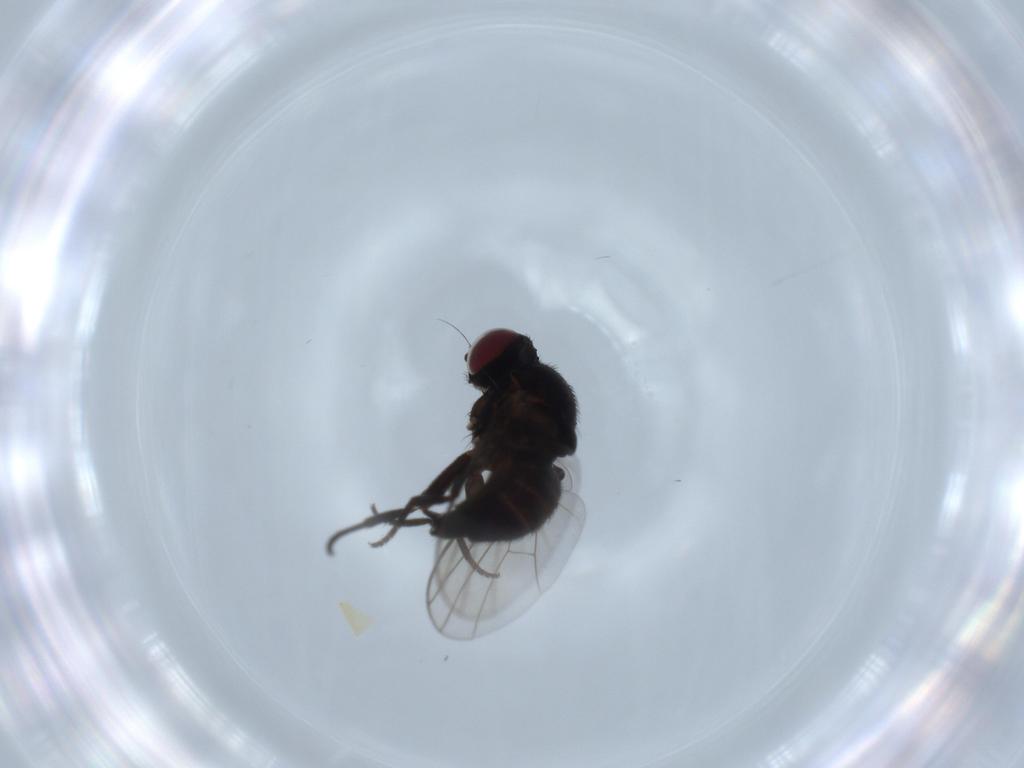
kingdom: Animalia
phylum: Arthropoda
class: Insecta
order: Diptera
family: Agromyzidae
